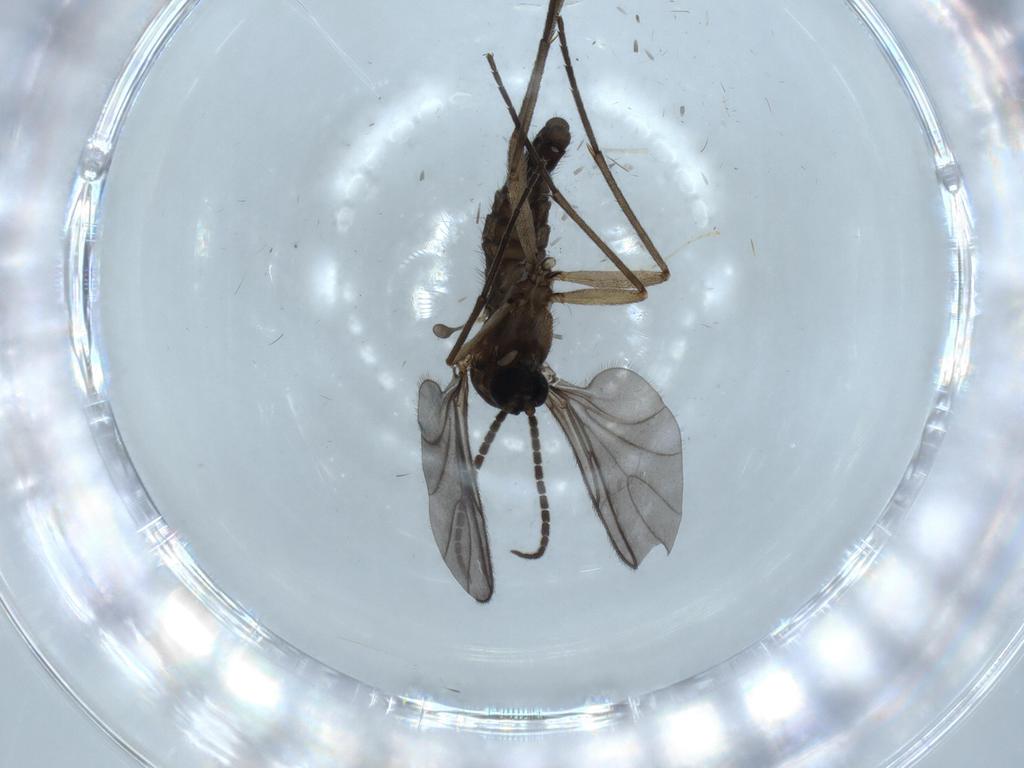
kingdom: Animalia
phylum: Arthropoda
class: Insecta
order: Diptera
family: Sciaridae
